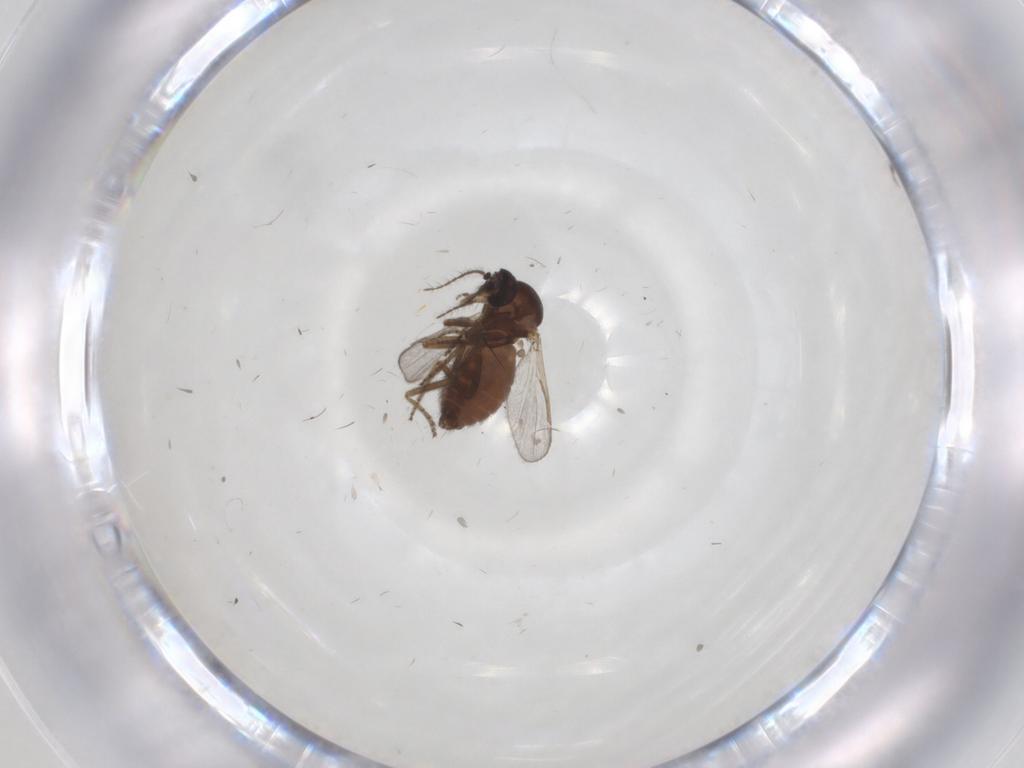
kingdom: Animalia
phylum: Arthropoda
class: Insecta
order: Diptera
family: Ceratopogonidae
